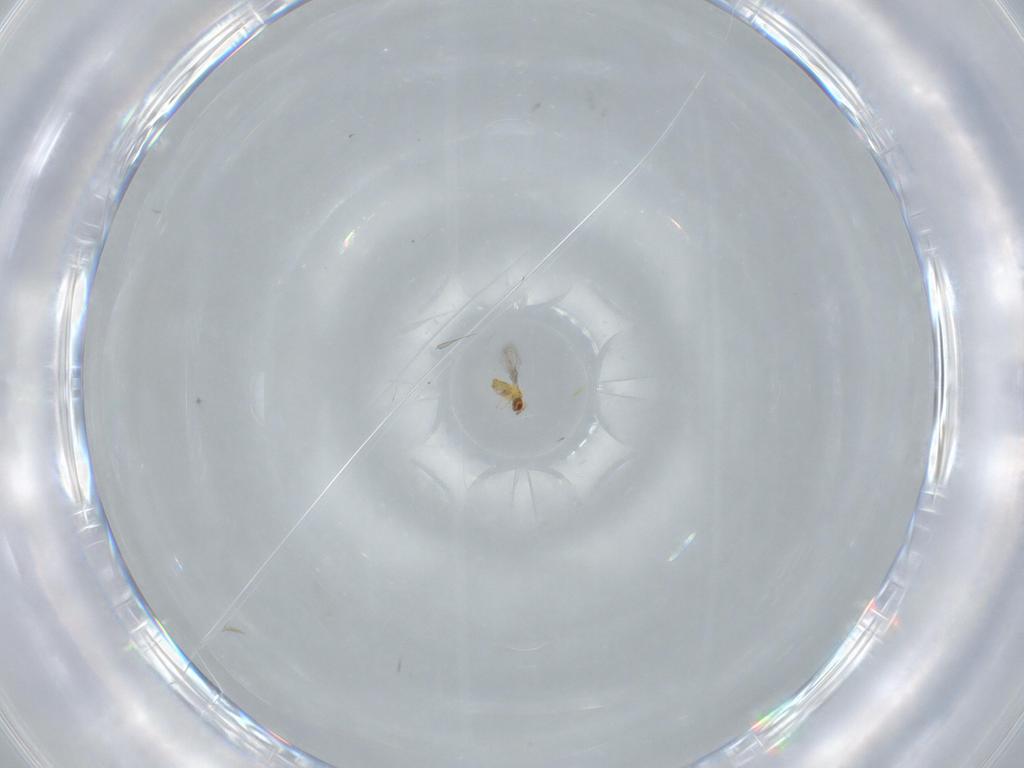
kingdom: Animalia
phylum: Arthropoda
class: Insecta
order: Hymenoptera
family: Trichogrammatidae
